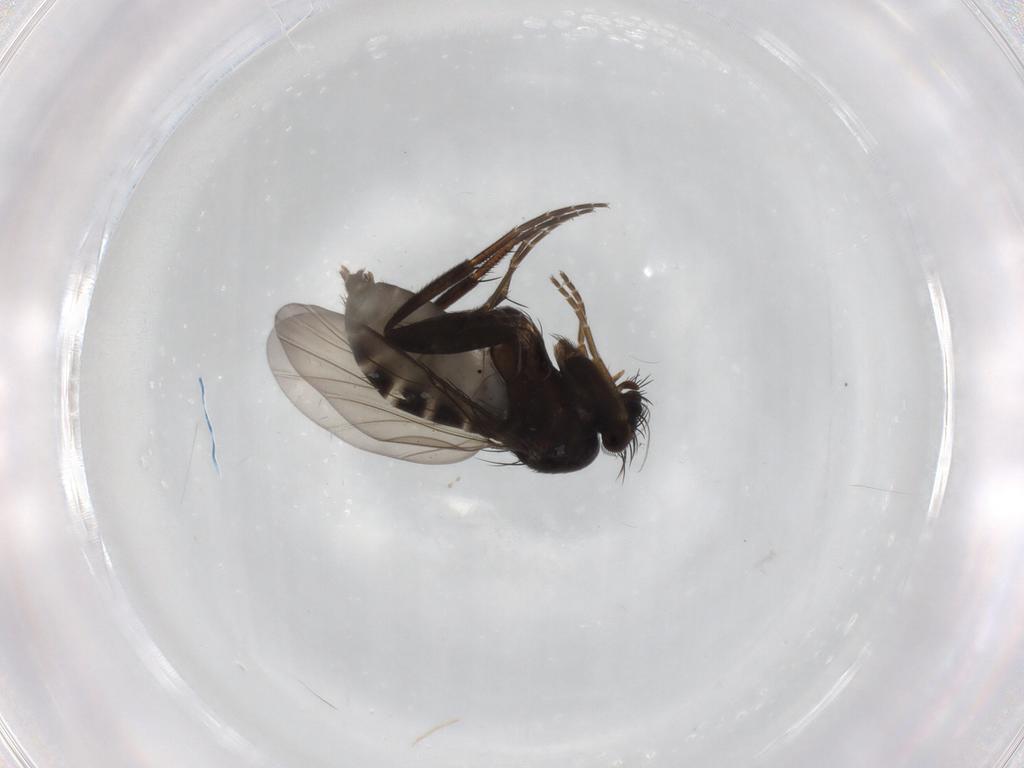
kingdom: Animalia
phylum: Arthropoda
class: Insecta
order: Diptera
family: Phoridae
